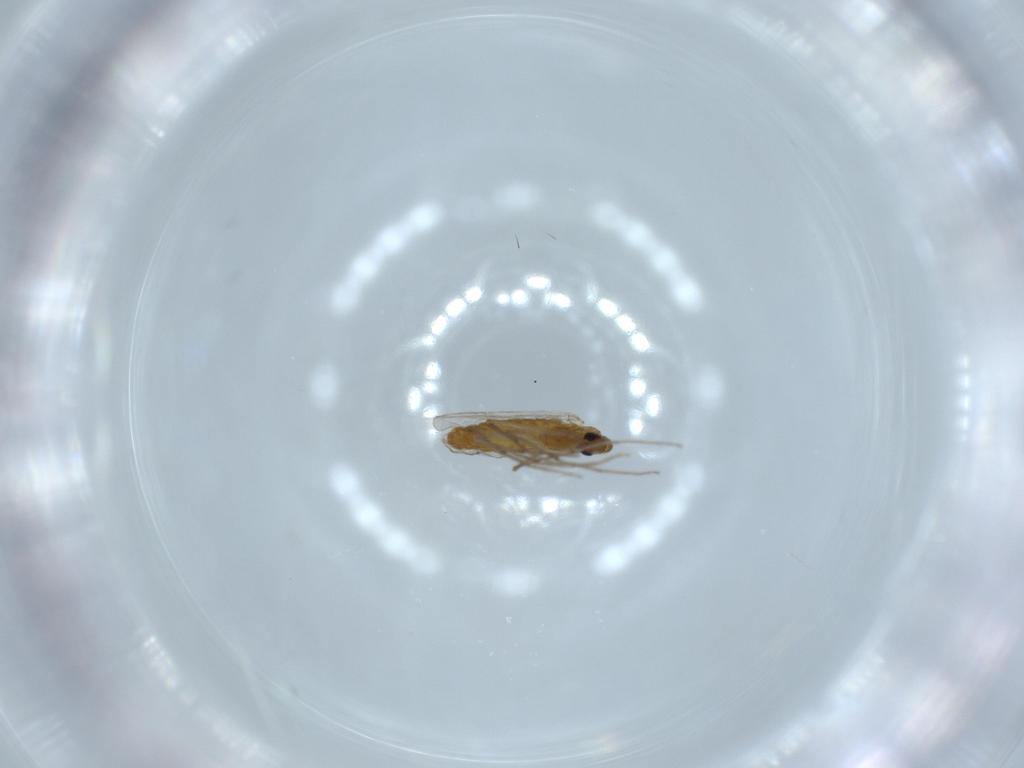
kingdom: Animalia
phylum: Arthropoda
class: Insecta
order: Diptera
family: Chironomidae
